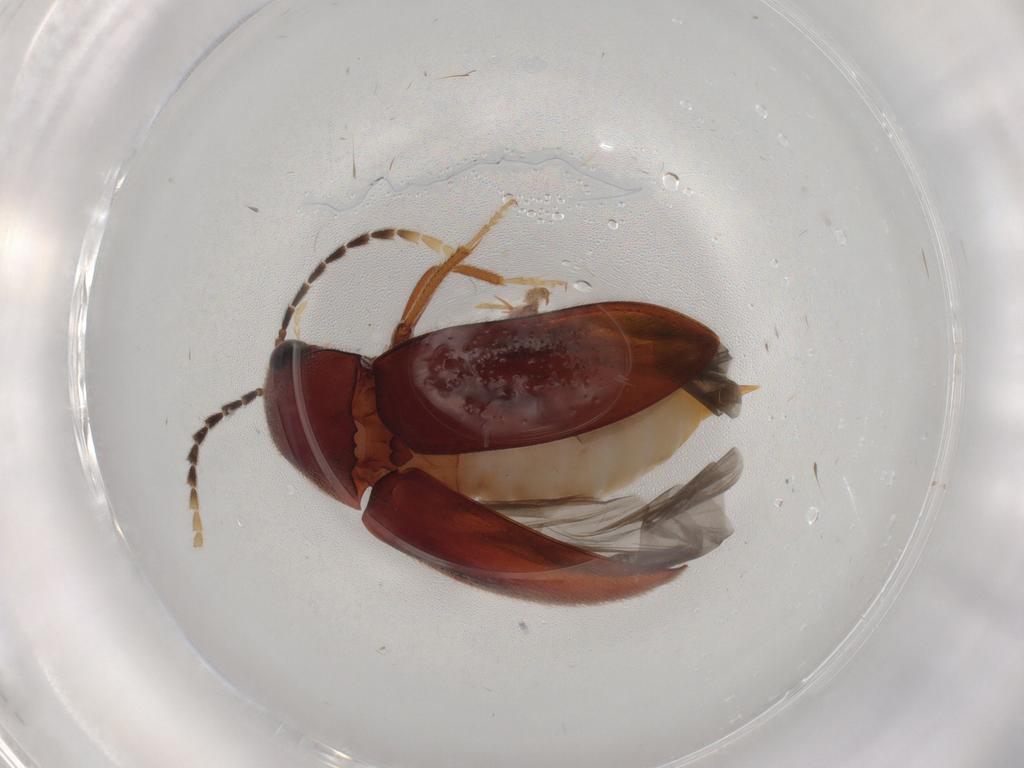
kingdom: Animalia
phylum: Arthropoda
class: Insecta
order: Coleoptera
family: Ptilodactylidae
